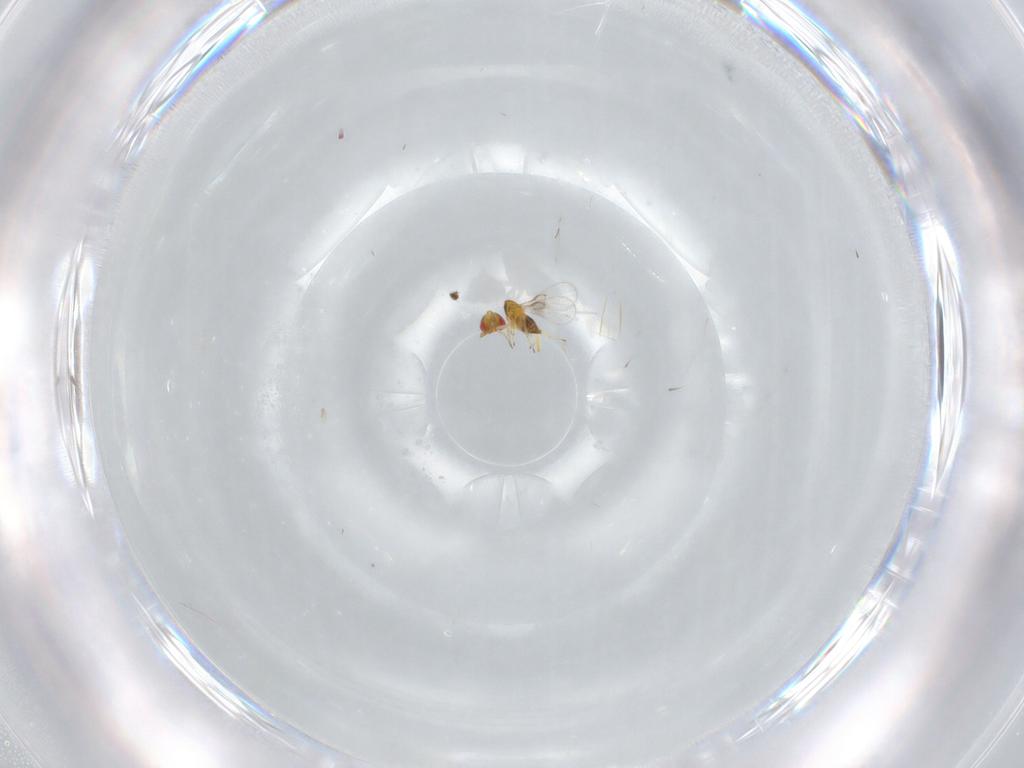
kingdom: Animalia
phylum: Arthropoda
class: Insecta
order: Hymenoptera
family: Trichogrammatidae
